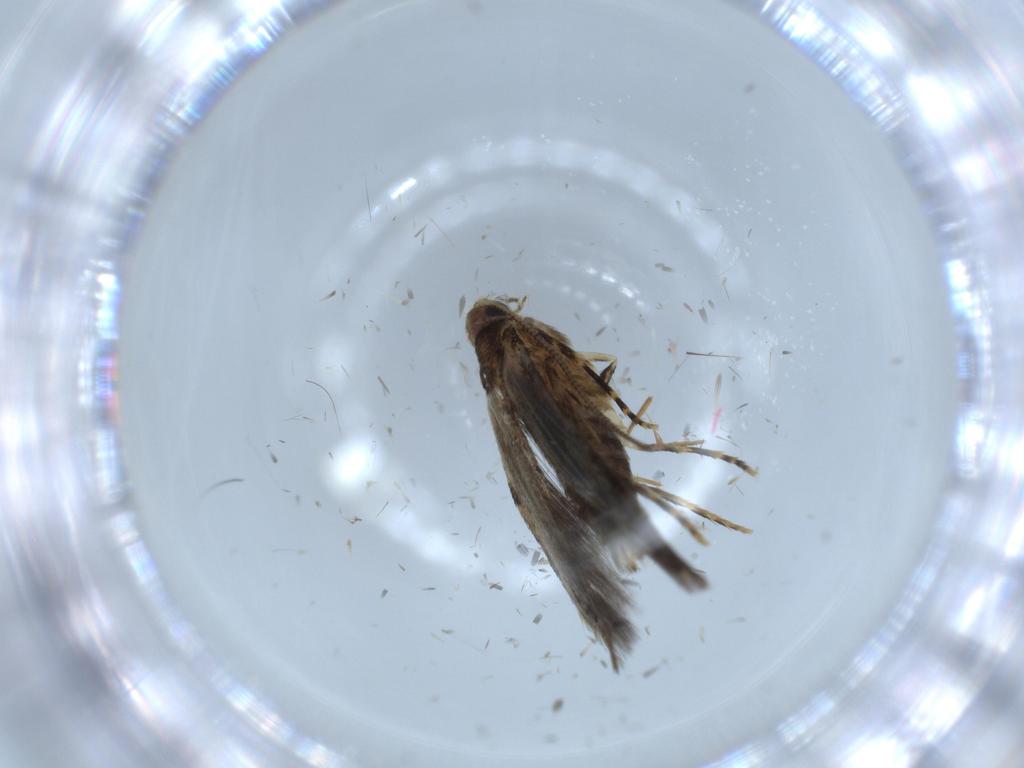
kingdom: Animalia
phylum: Arthropoda
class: Insecta
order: Lepidoptera
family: Meessiidae
